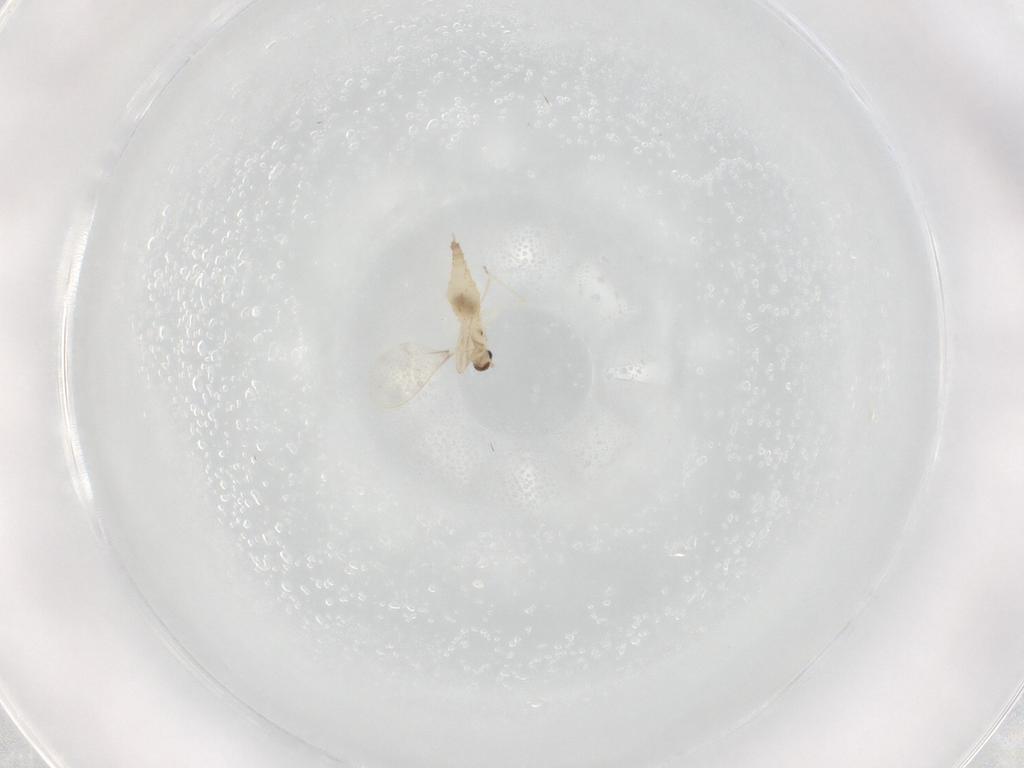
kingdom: Animalia
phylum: Arthropoda
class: Insecta
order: Diptera
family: Cecidomyiidae
